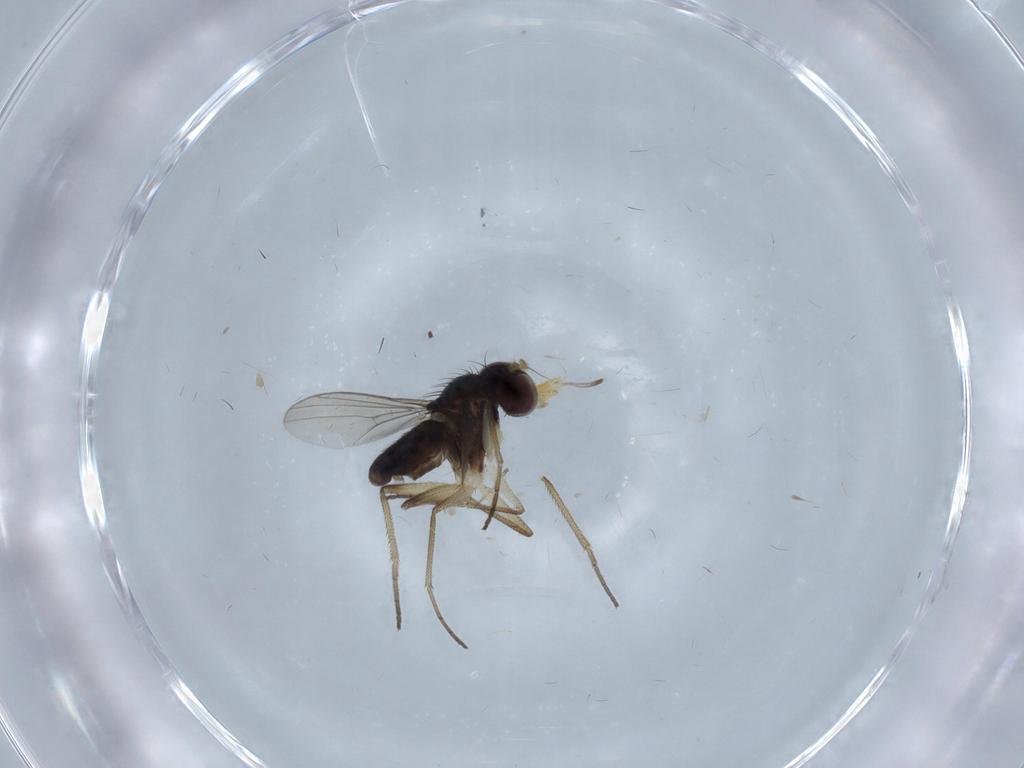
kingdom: Animalia
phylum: Arthropoda
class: Insecta
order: Diptera
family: Dolichopodidae
